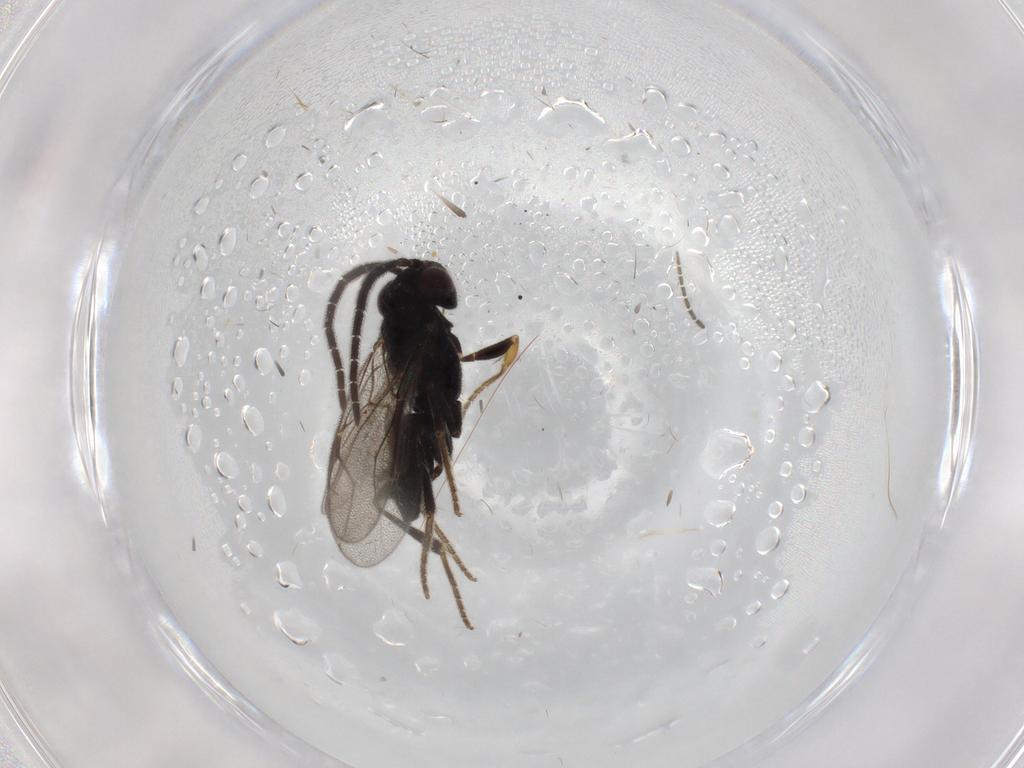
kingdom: Animalia
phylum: Arthropoda
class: Insecta
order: Hymenoptera
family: Dryinidae
